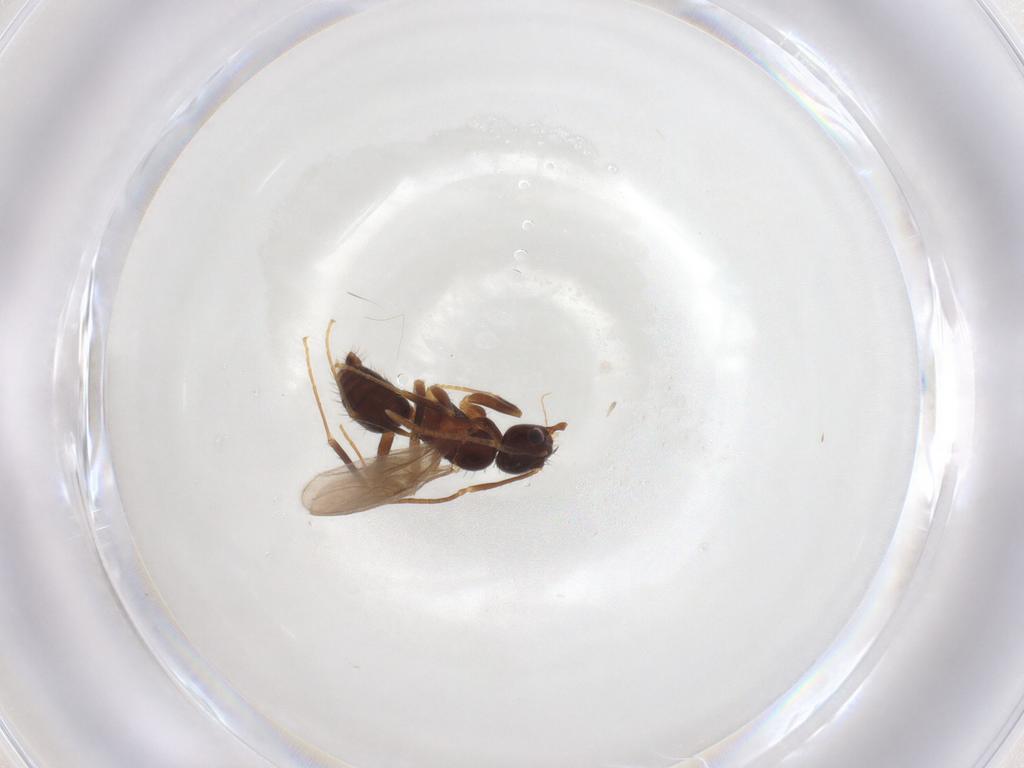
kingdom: Animalia
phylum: Arthropoda
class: Insecta
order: Hymenoptera
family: Formicidae
